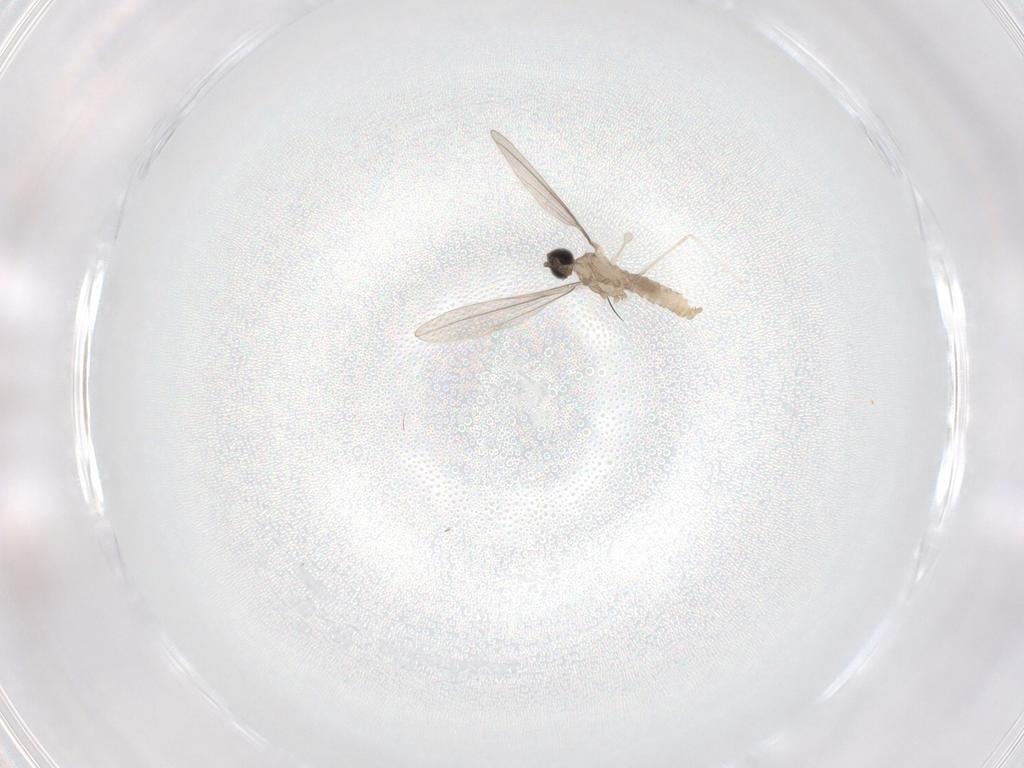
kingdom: Animalia
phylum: Arthropoda
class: Insecta
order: Diptera
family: Cecidomyiidae
